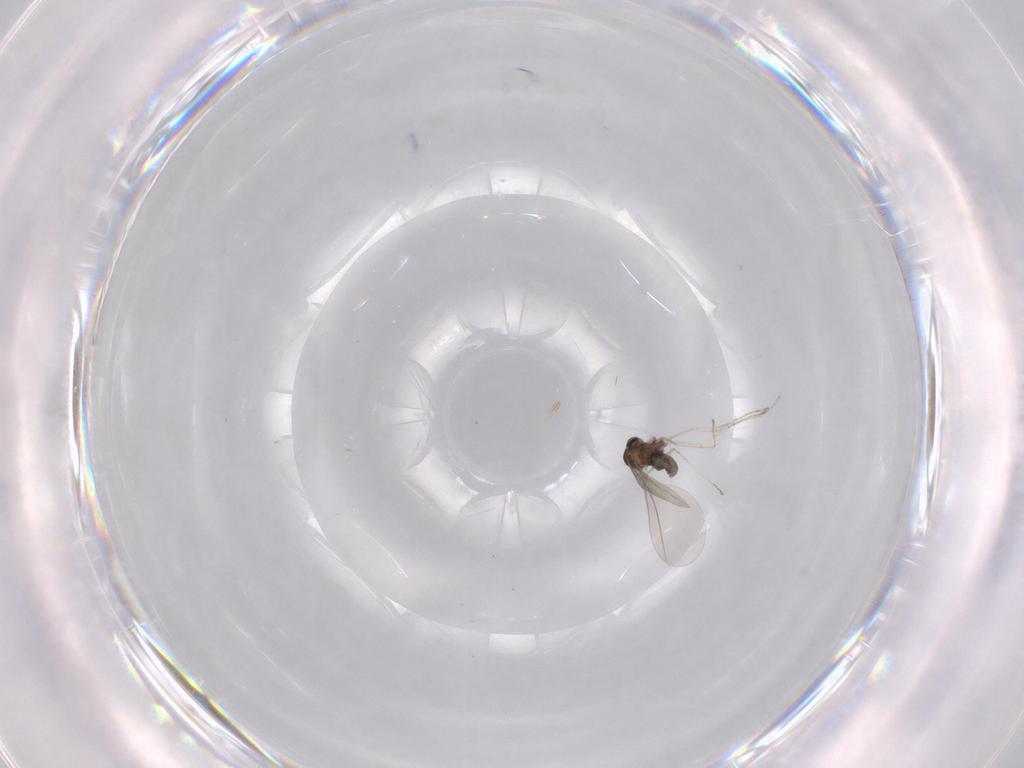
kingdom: Animalia
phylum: Arthropoda
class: Insecta
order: Diptera
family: Cecidomyiidae
